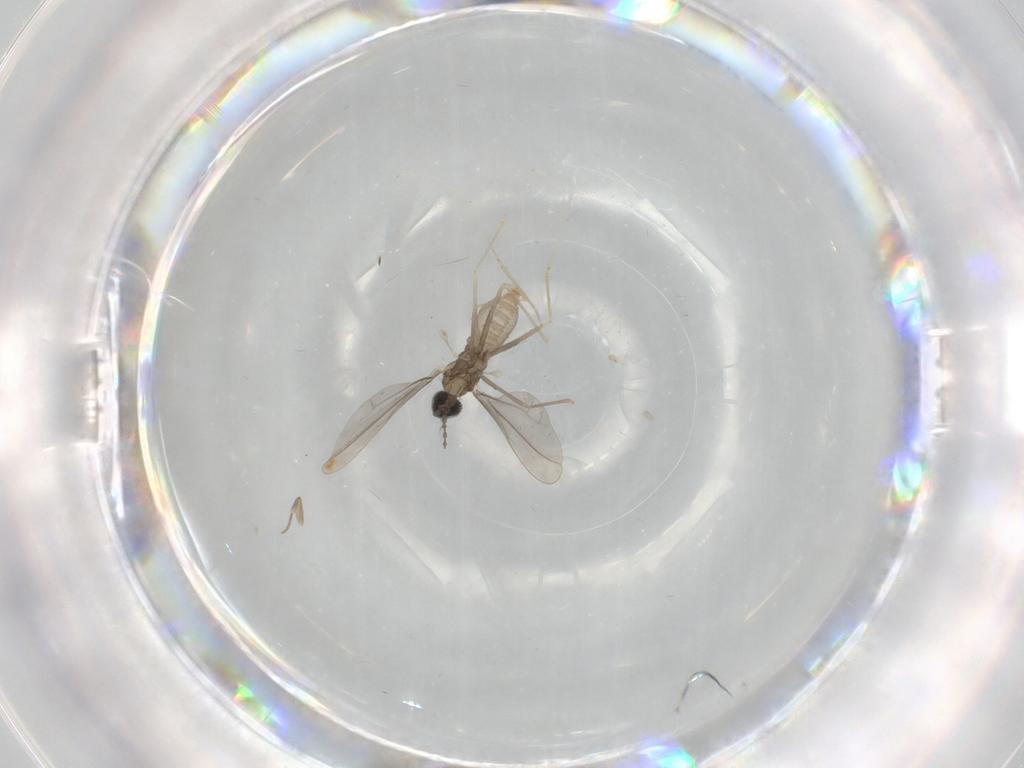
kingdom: Animalia
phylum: Arthropoda
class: Insecta
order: Diptera
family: Cecidomyiidae
